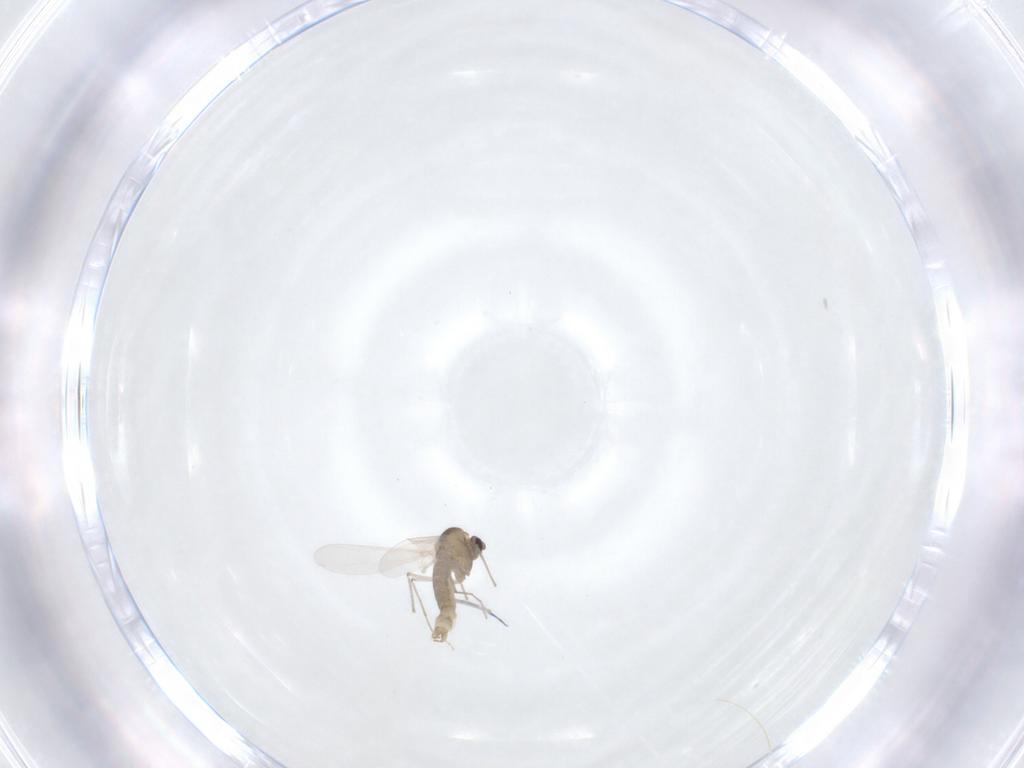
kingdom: Animalia
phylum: Arthropoda
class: Insecta
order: Diptera
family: Chironomidae
